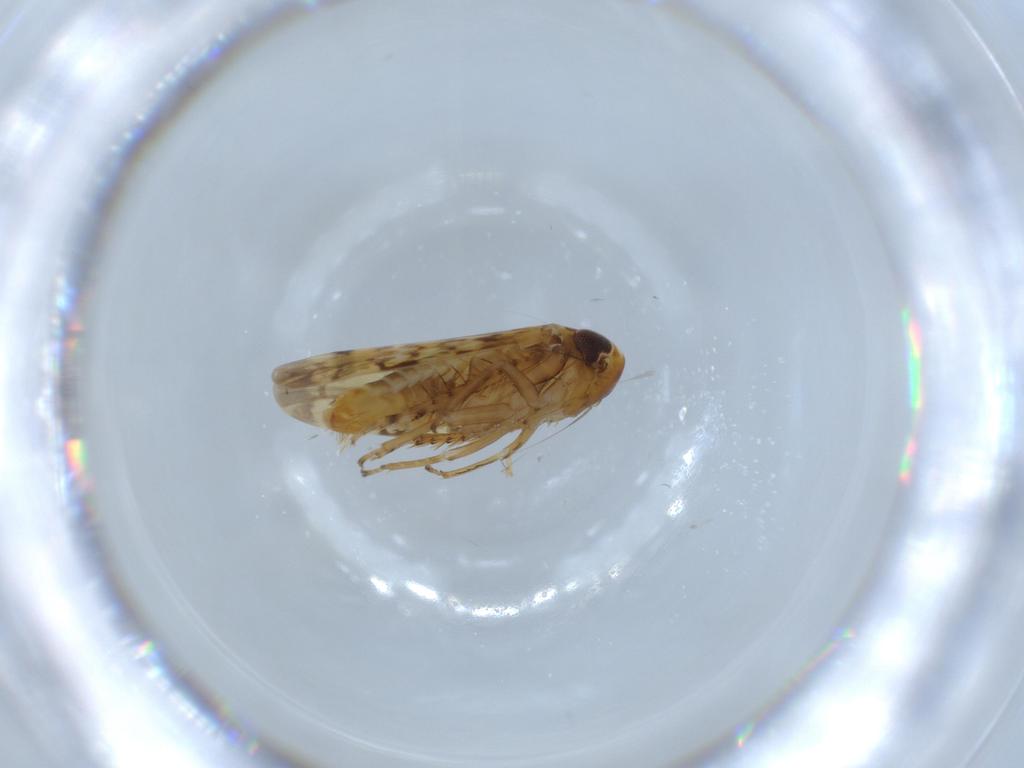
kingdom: Animalia
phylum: Arthropoda
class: Insecta
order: Hemiptera
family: Cicadellidae
